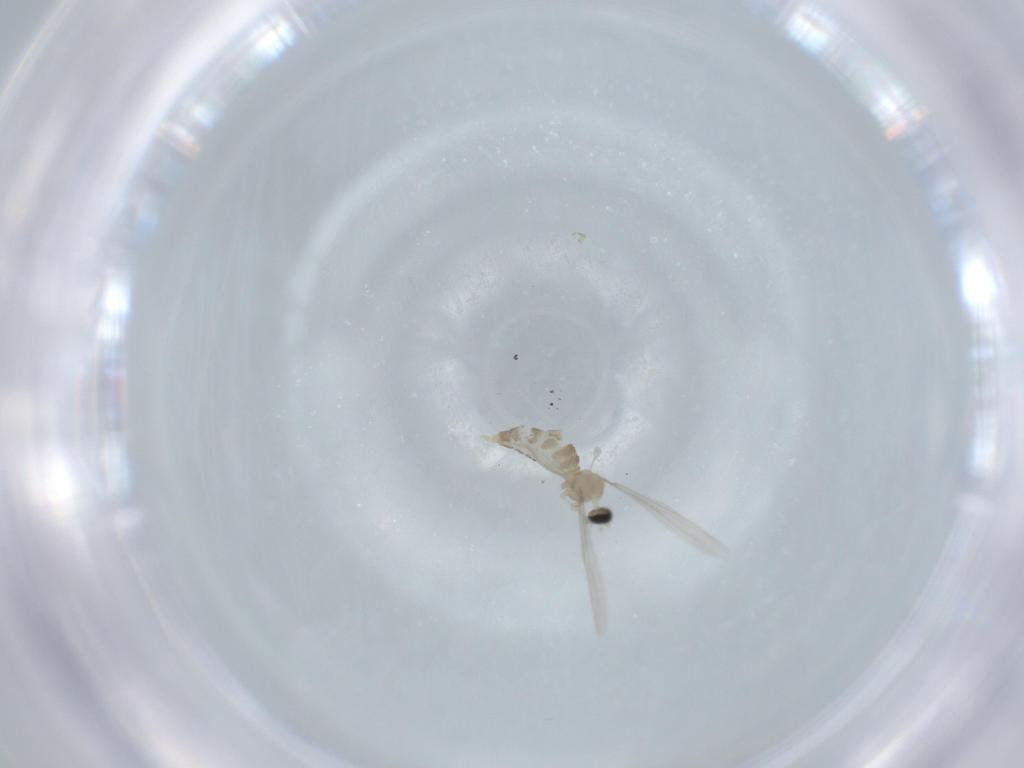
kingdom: Animalia
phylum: Arthropoda
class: Insecta
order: Diptera
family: Cecidomyiidae
